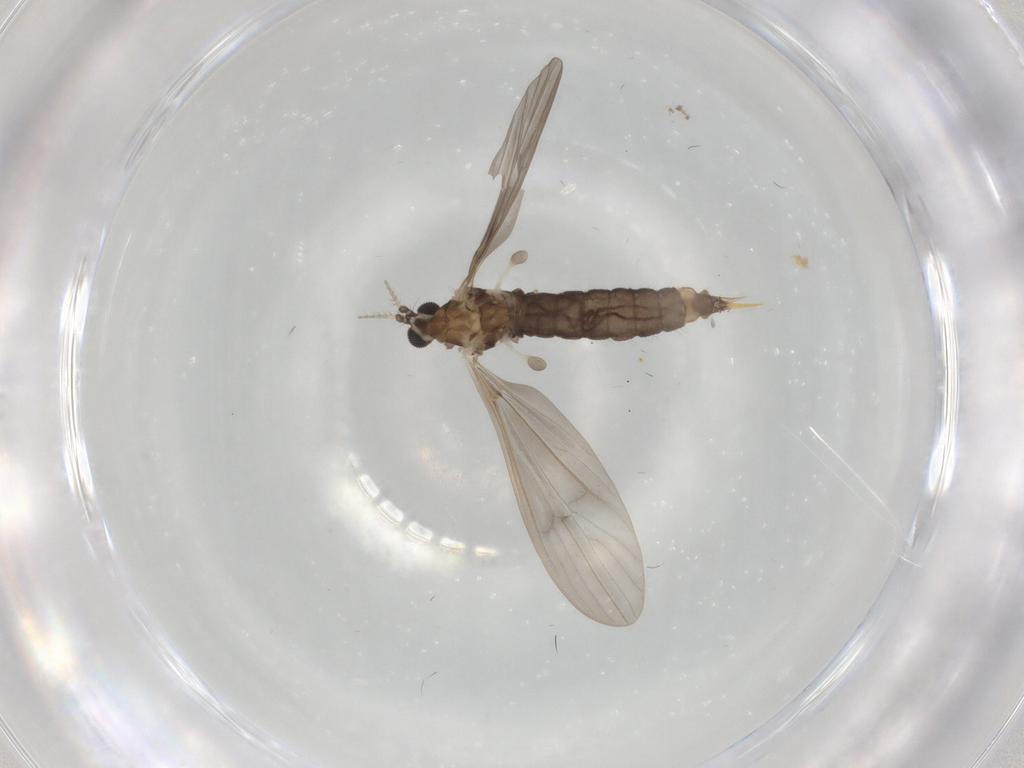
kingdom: Animalia
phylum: Arthropoda
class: Insecta
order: Diptera
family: Limoniidae
